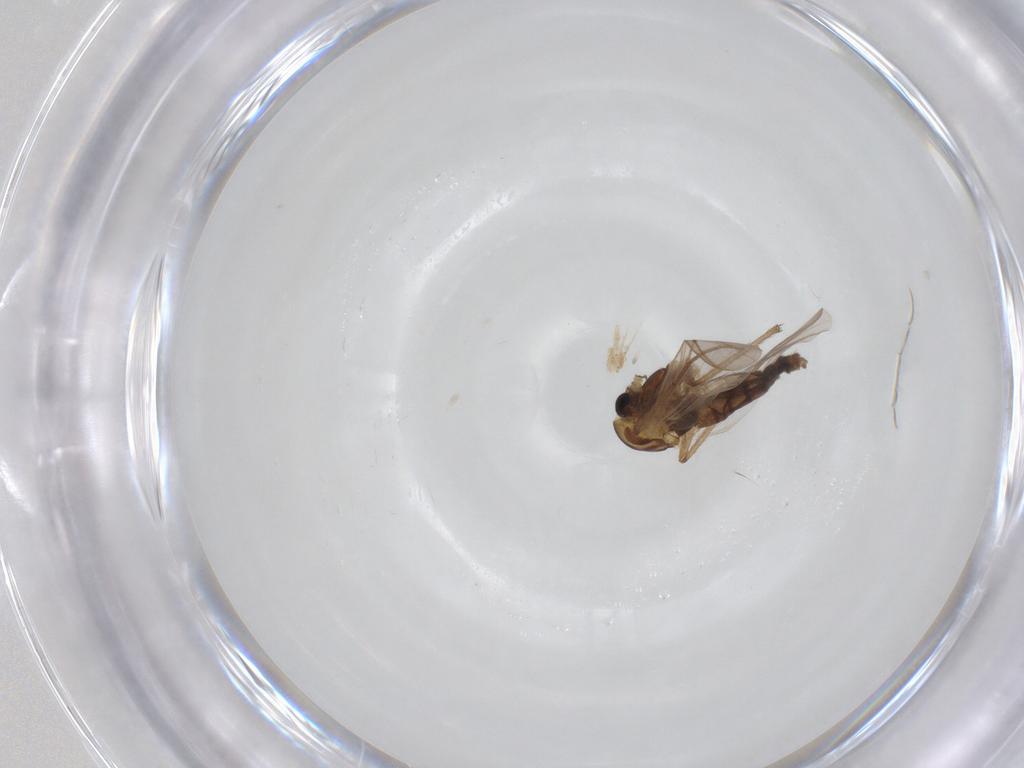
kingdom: Animalia
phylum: Arthropoda
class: Insecta
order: Diptera
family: Chironomidae
